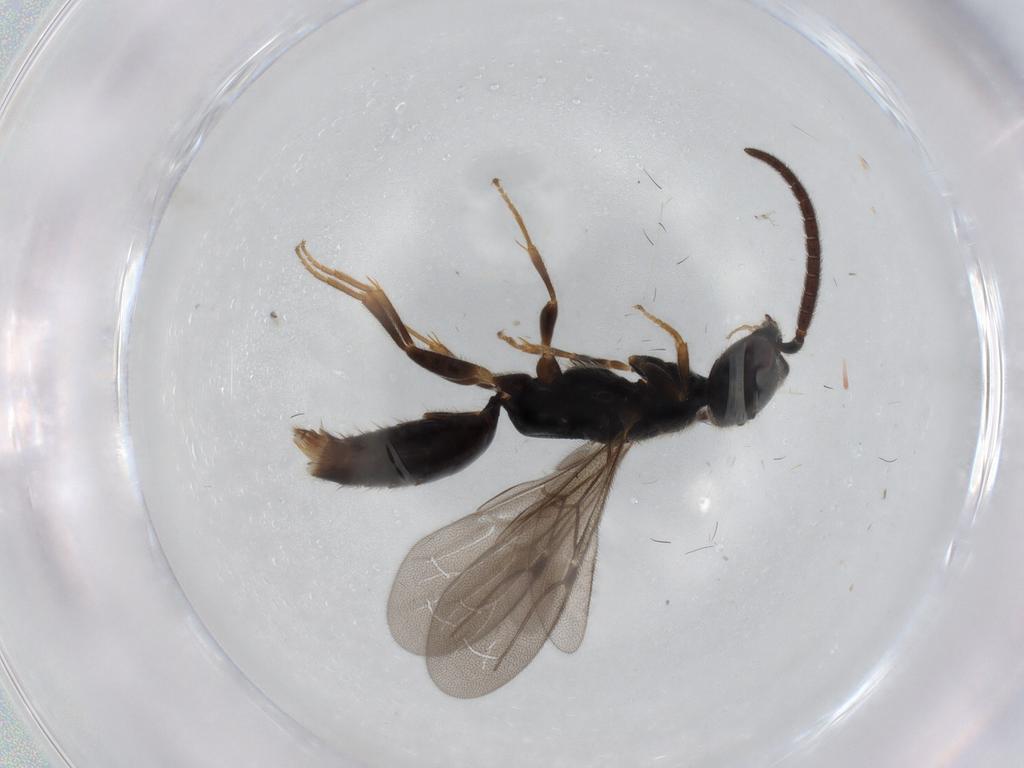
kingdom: Animalia
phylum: Arthropoda
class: Insecta
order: Hymenoptera
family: Bethylidae
